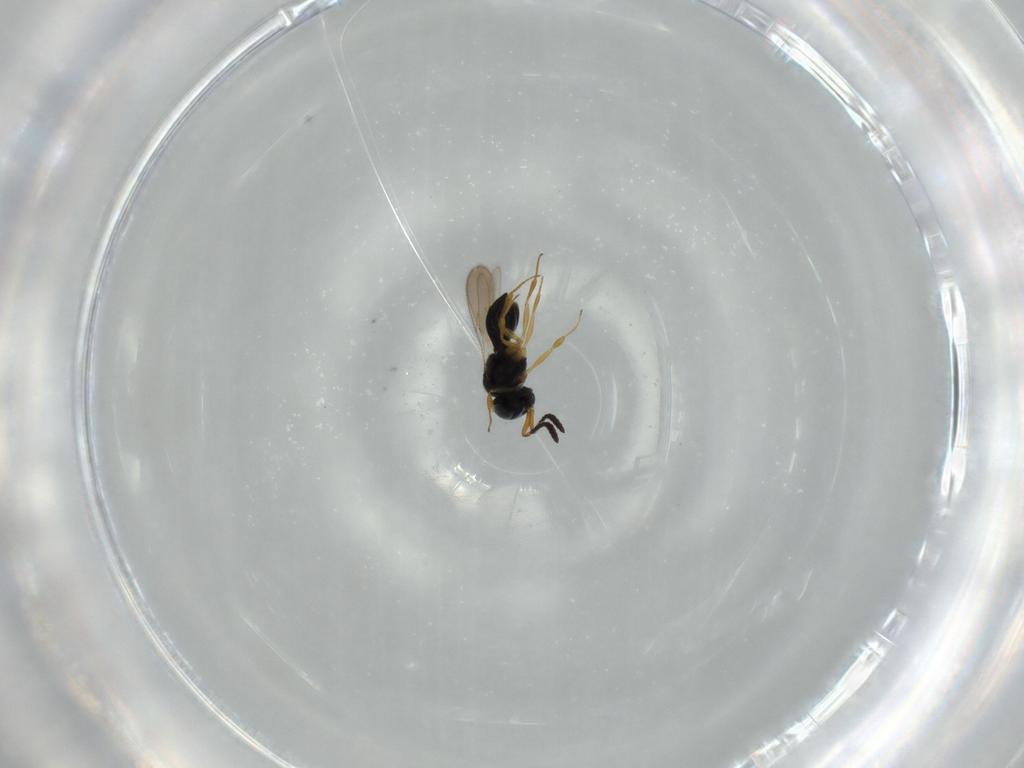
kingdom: Animalia
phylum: Arthropoda
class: Insecta
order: Hymenoptera
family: Scelionidae
